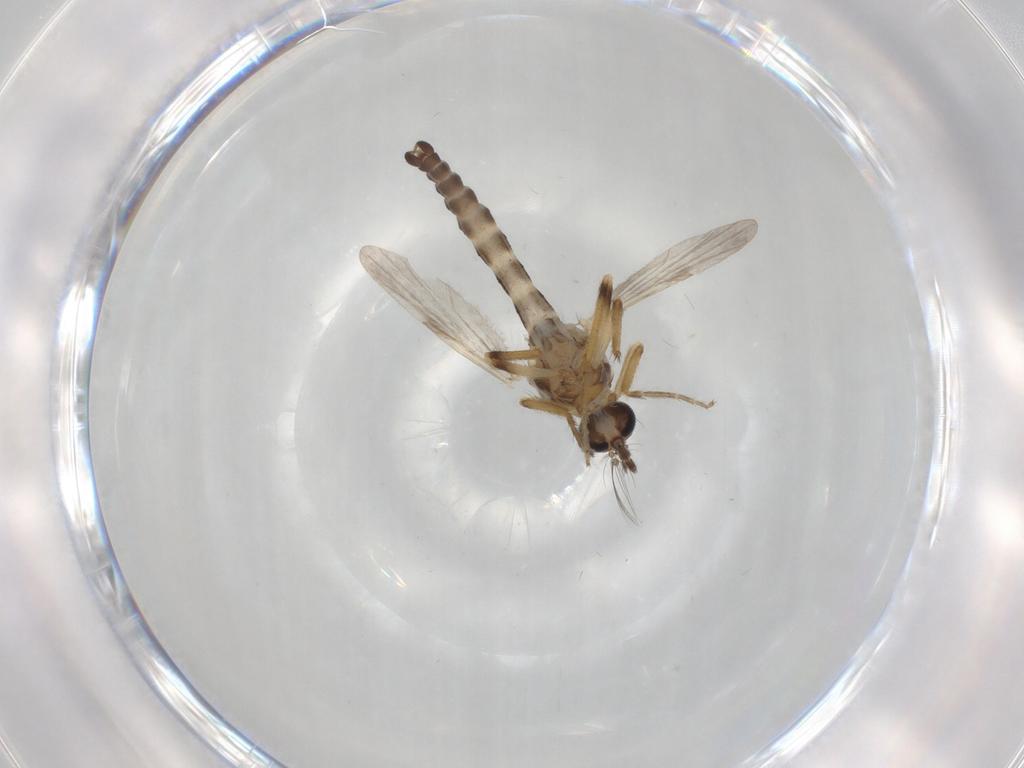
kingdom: Animalia
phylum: Arthropoda
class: Insecta
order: Diptera
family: Ceratopogonidae
